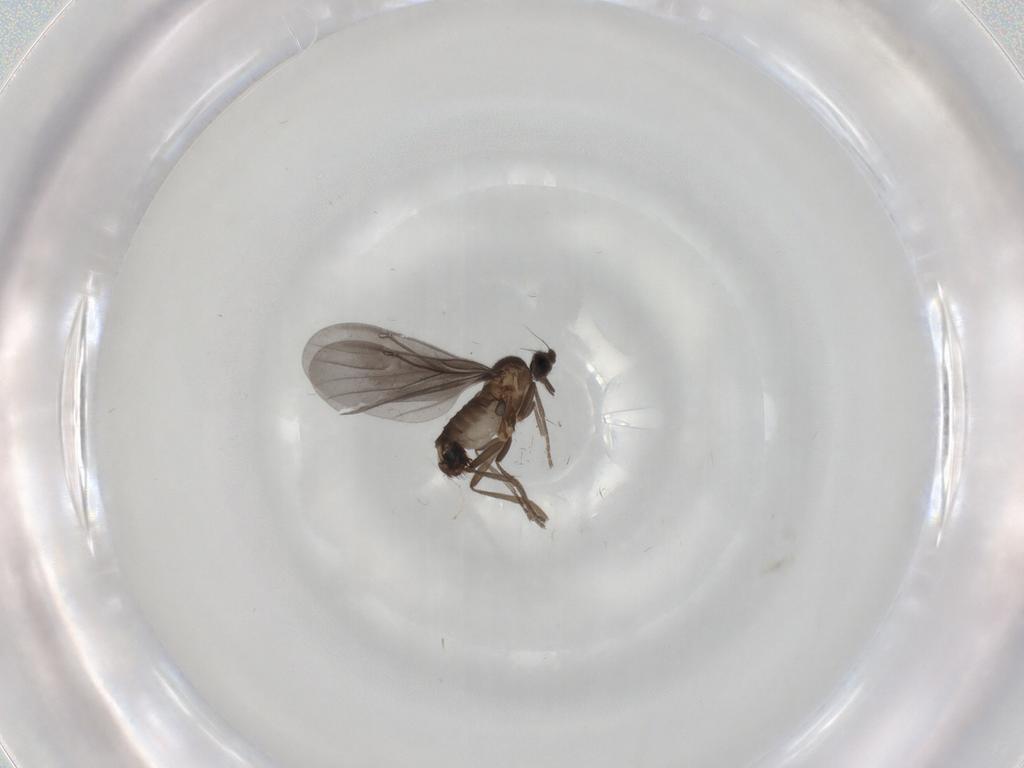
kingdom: Animalia
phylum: Arthropoda
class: Insecta
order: Diptera
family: Phoridae
